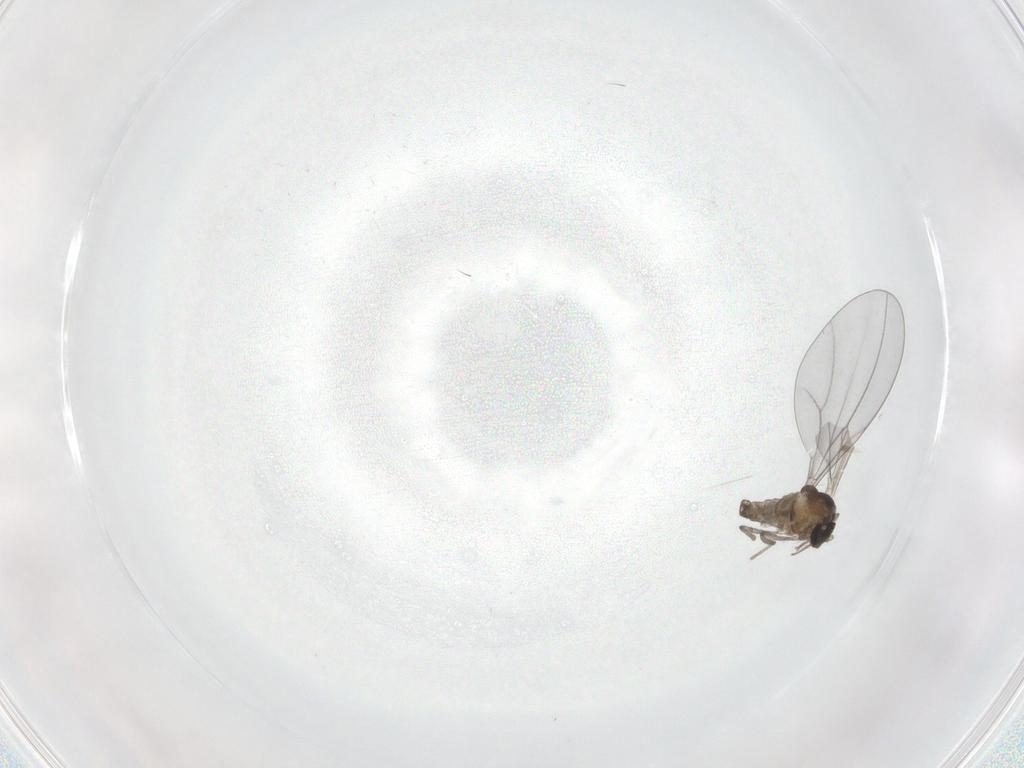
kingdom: Animalia
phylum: Arthropoda
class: Insecta
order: Diptera
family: Cecidomyiidae
